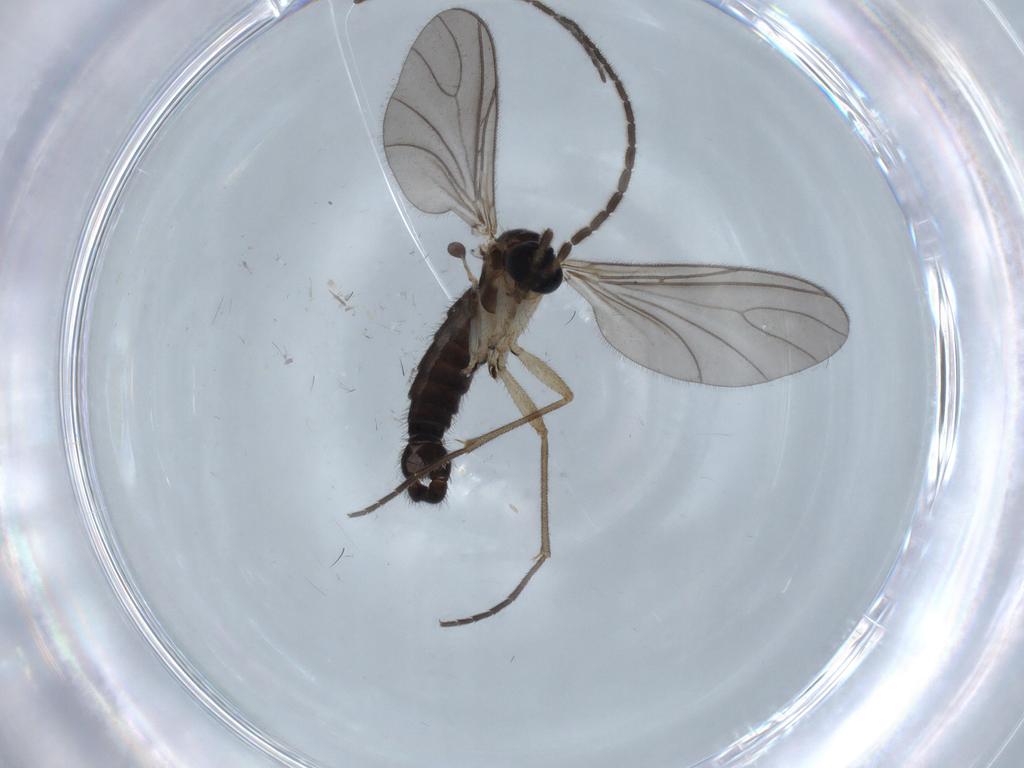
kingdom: Animalia
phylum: Arthropoda
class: Insecta
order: Diptera
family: Sciaridae
